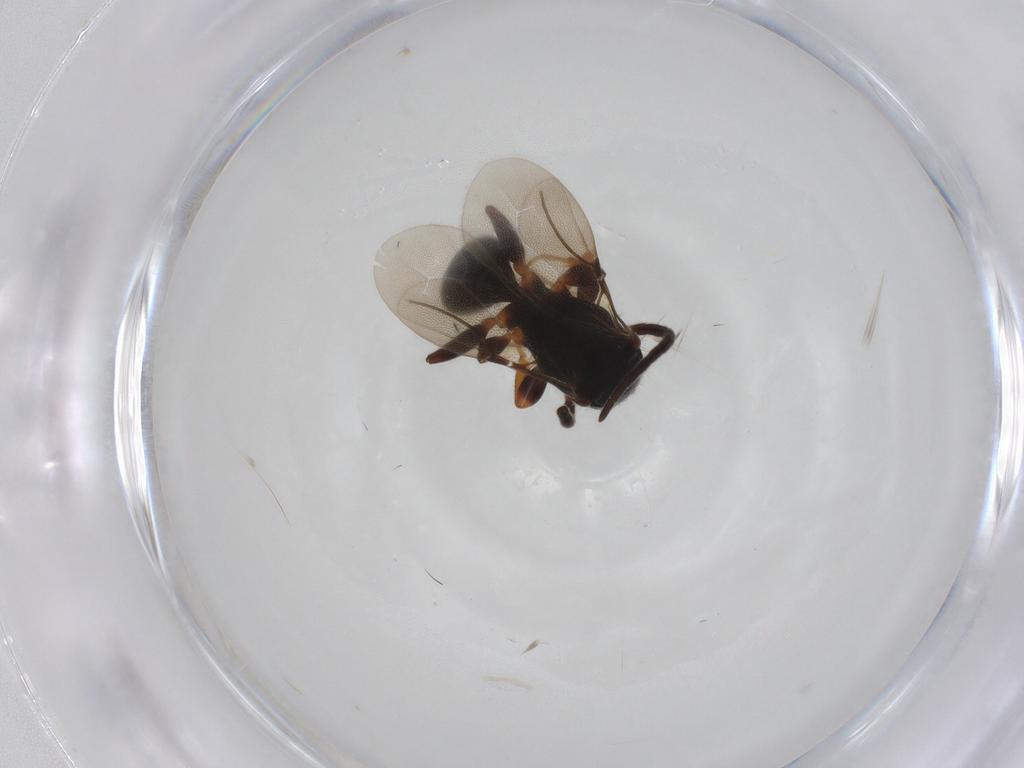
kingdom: Animalia
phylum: Arthropoda
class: Insecta
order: Hymenoptera
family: Bethylidae
